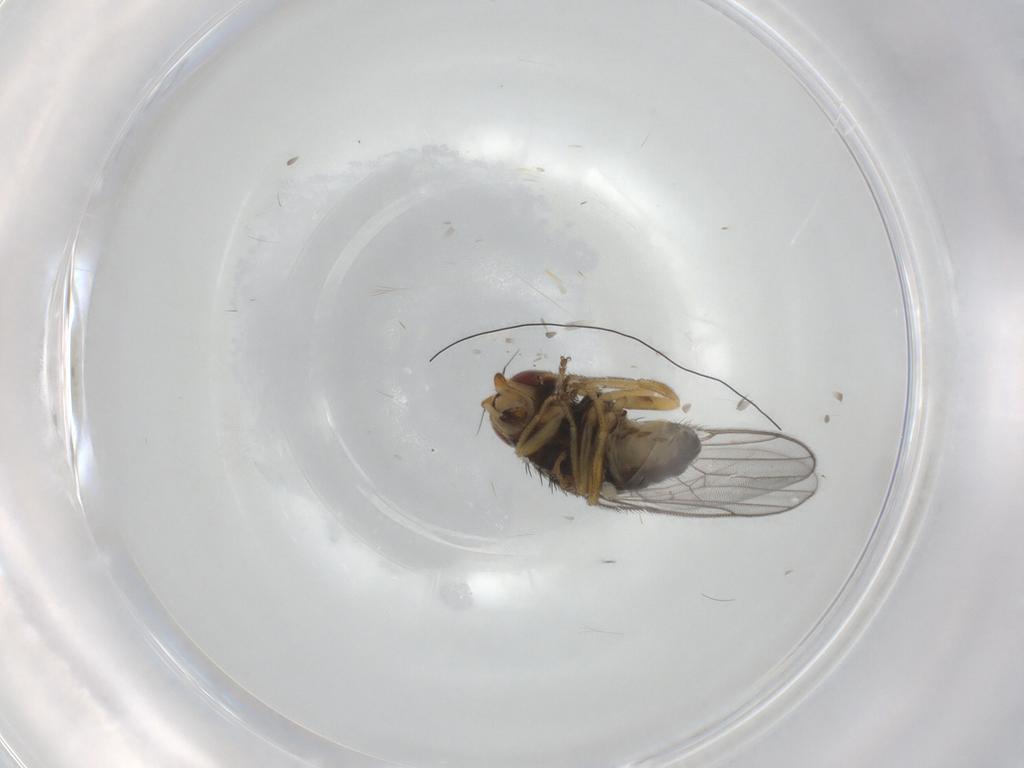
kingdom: Animalia
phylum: Arthropoda
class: Insecta
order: Diptera
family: Chloropidae
